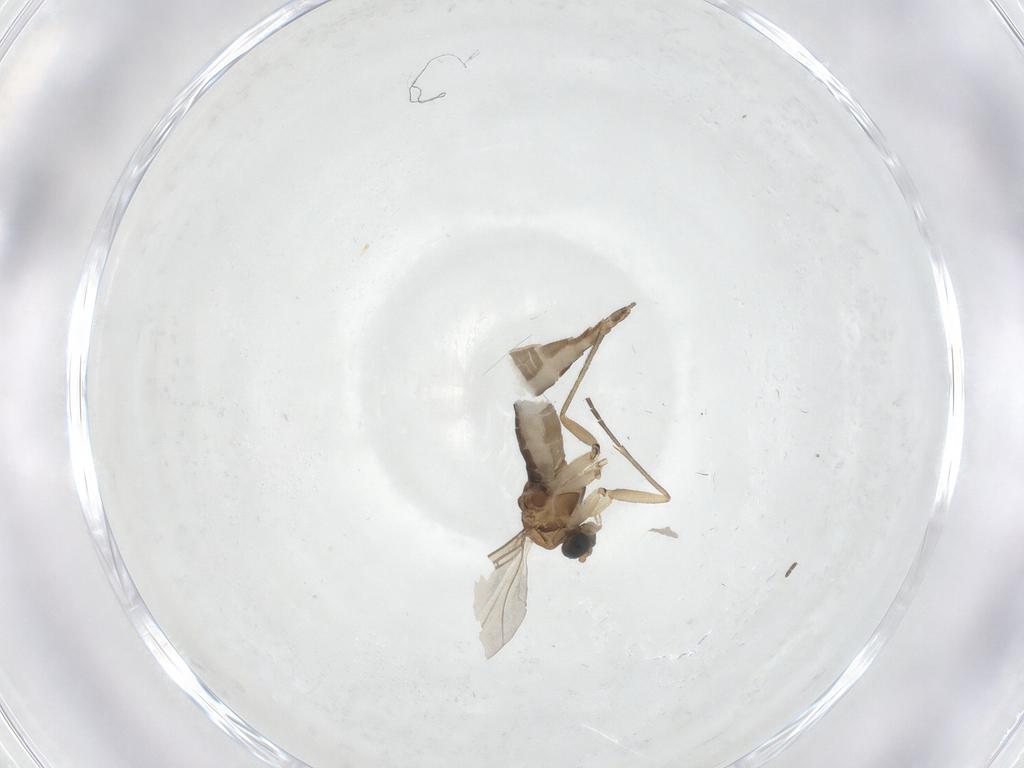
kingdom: Animalia
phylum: Arthropoda
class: Insecta
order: Diptera
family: Sciaridae
